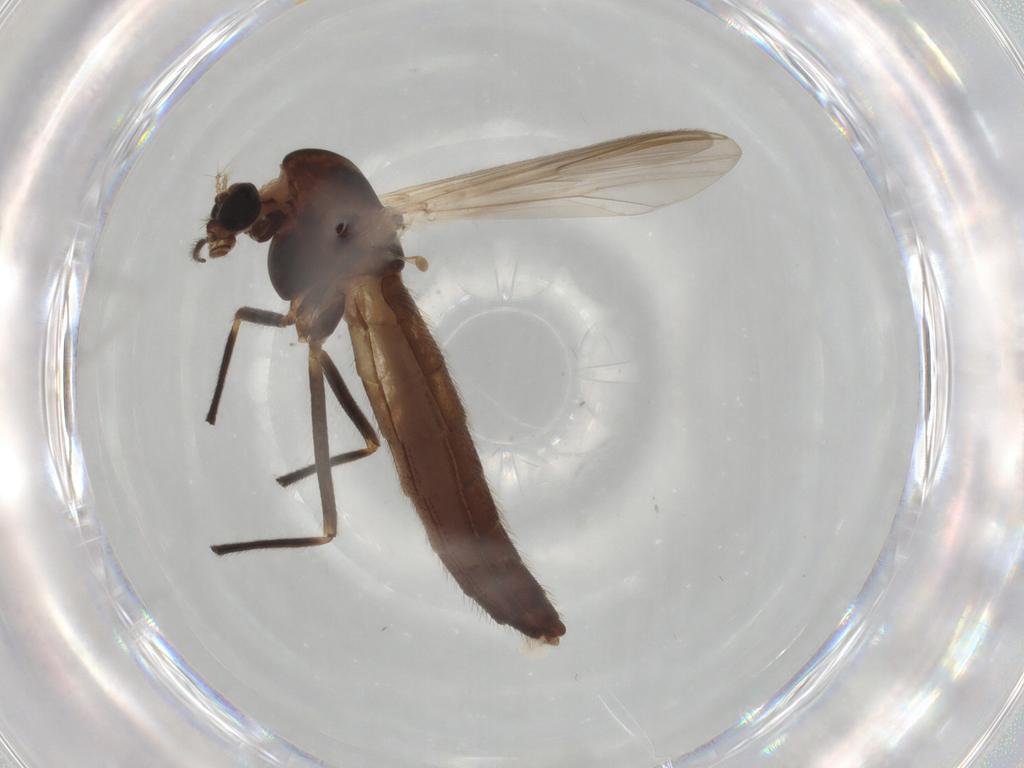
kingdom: Animalia
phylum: Arthropoda
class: Insecta
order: Diptera
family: Chironomidae
